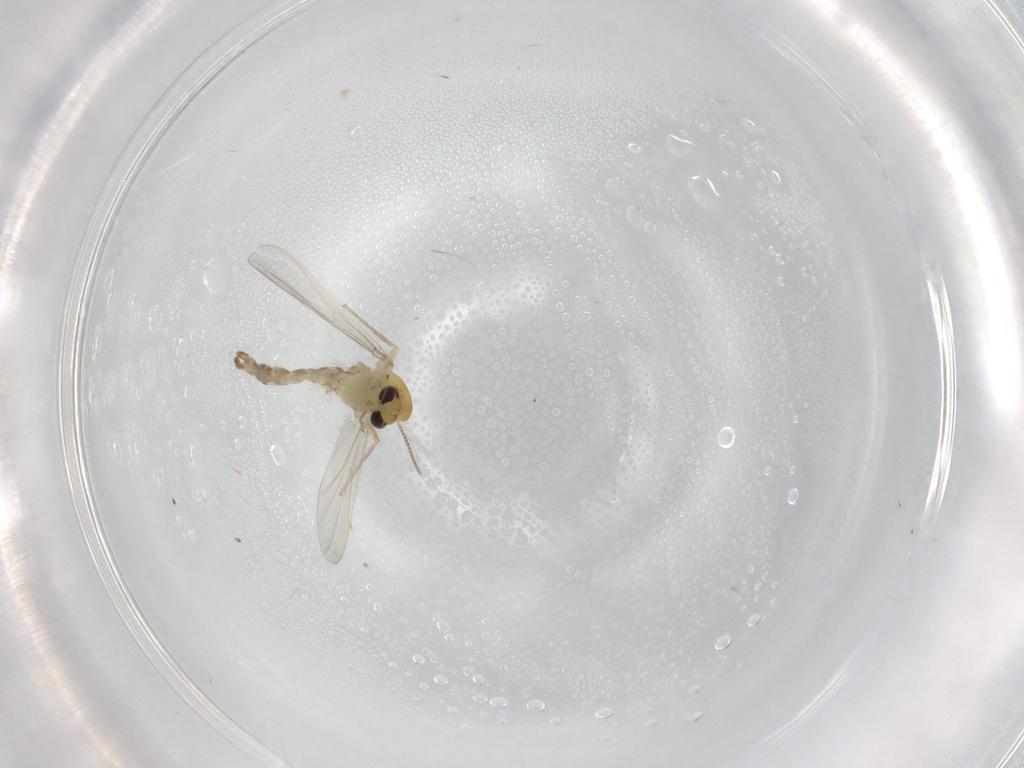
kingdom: Animalia
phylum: Arthropoda
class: Insecta
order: Diptera
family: Chironomidae
